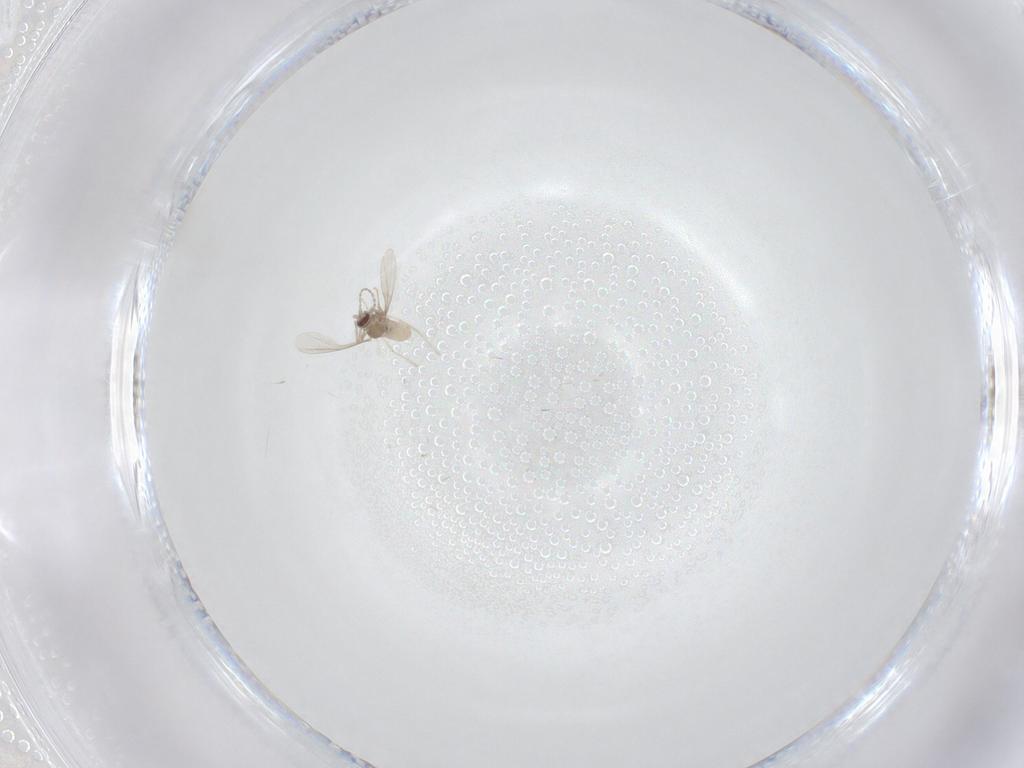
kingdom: Animalia
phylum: Arthropoda
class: Insecta
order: Diptera
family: Cecidomyiidae
